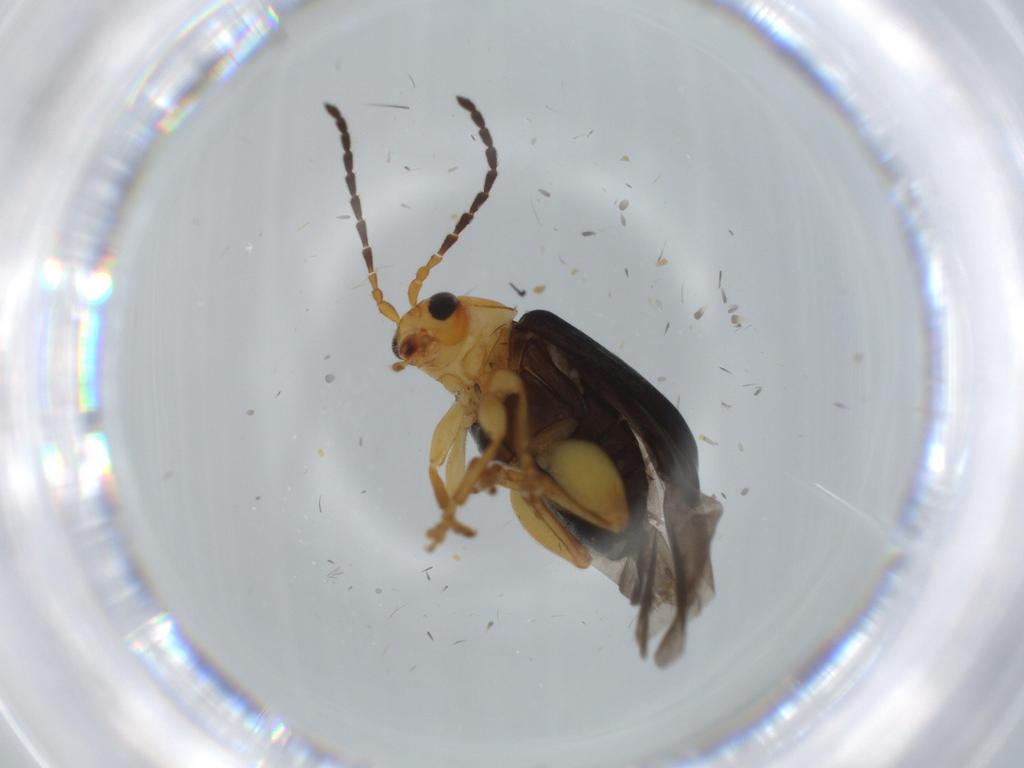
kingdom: Animalia
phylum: Arthropoda
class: Insecta
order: Coleoptera
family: Chrysomelidae
